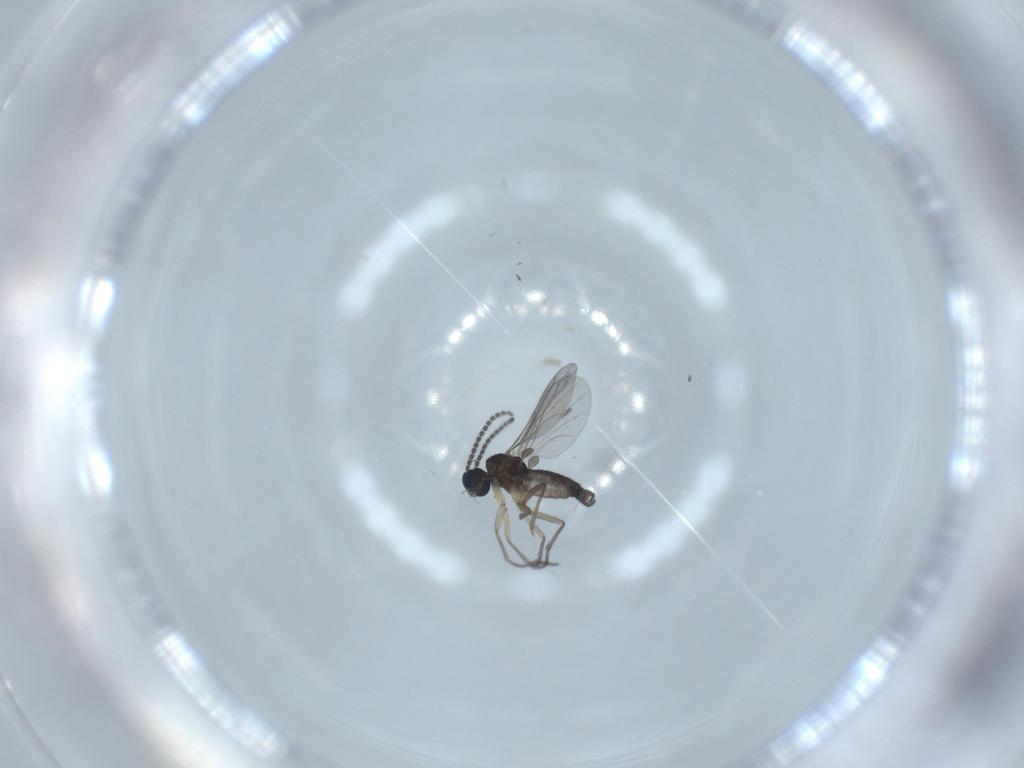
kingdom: Animalia
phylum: Arthropoda
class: Insecta
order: Diptera
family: Sciaridae
